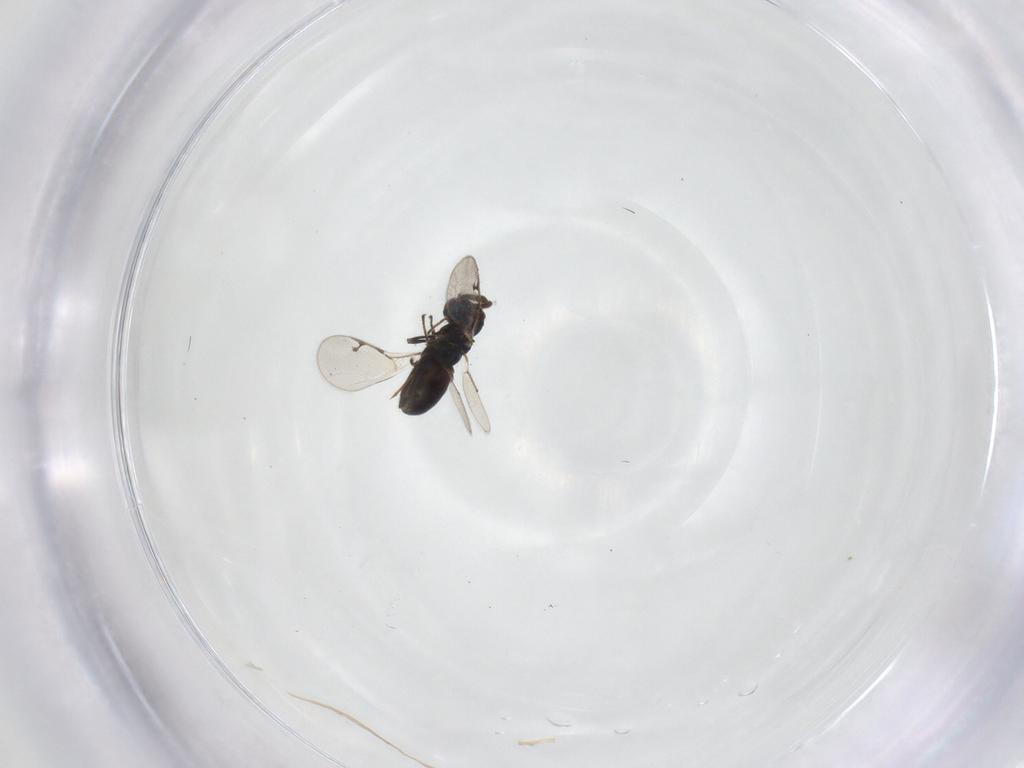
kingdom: Animalia
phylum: Arthropoda
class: Insecta
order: Hymenoptera
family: Pteromalidae
